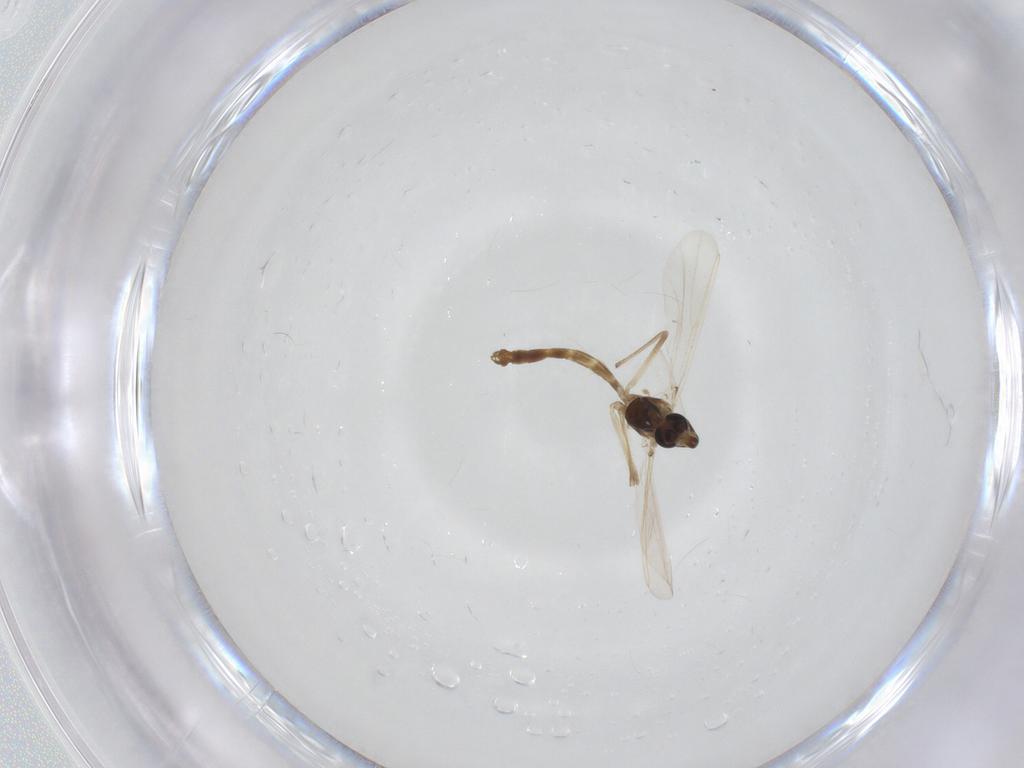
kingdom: Animalia
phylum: Arthropoda
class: Insecta
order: Diptera
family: Chironomidae
